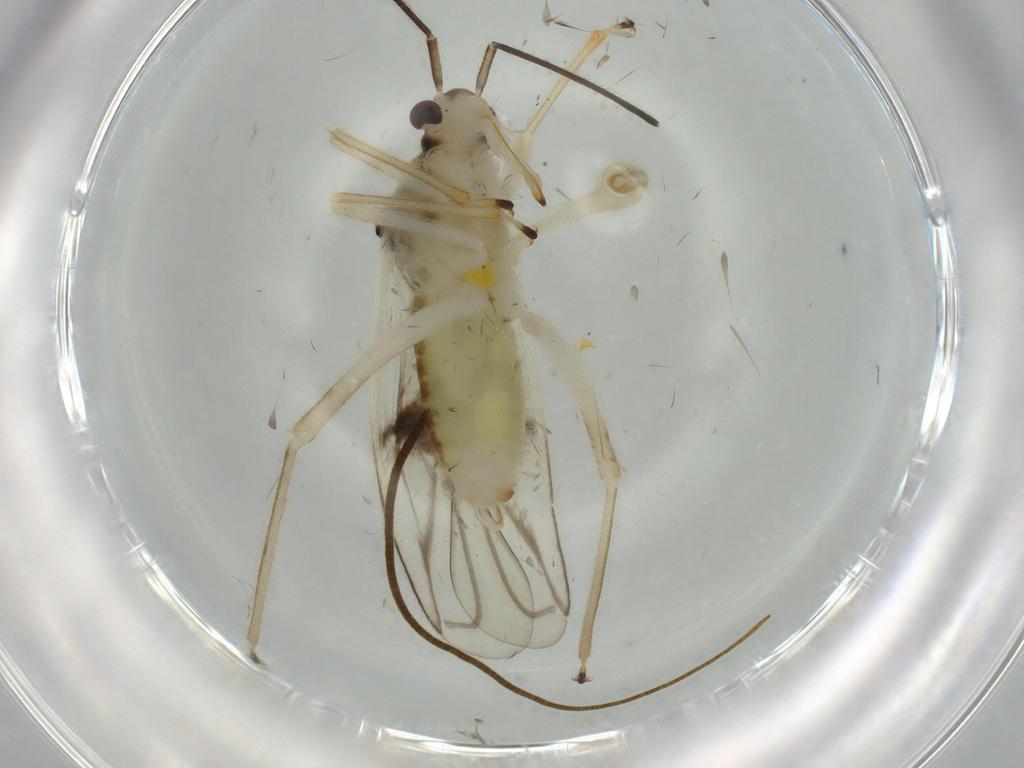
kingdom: Animalia
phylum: Arthropoda
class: Insecta
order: Hemiptera
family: Miridae
